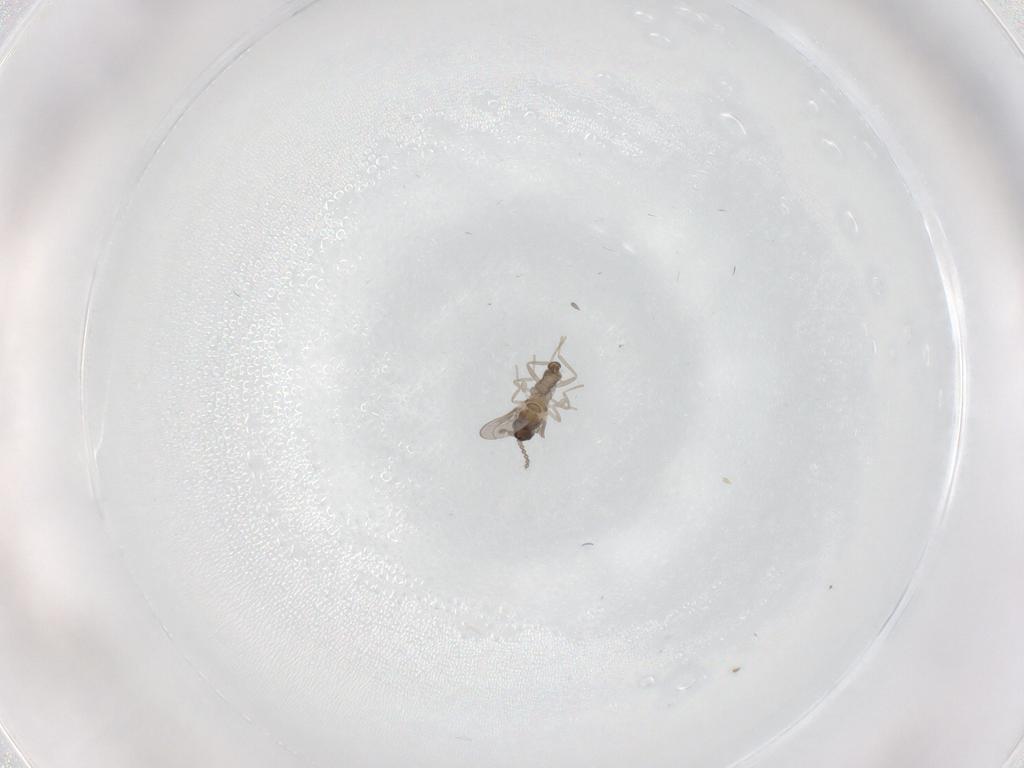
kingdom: Animalia
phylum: Arthropoda
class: Insecta
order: Diptera
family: Cecidomyiidae
